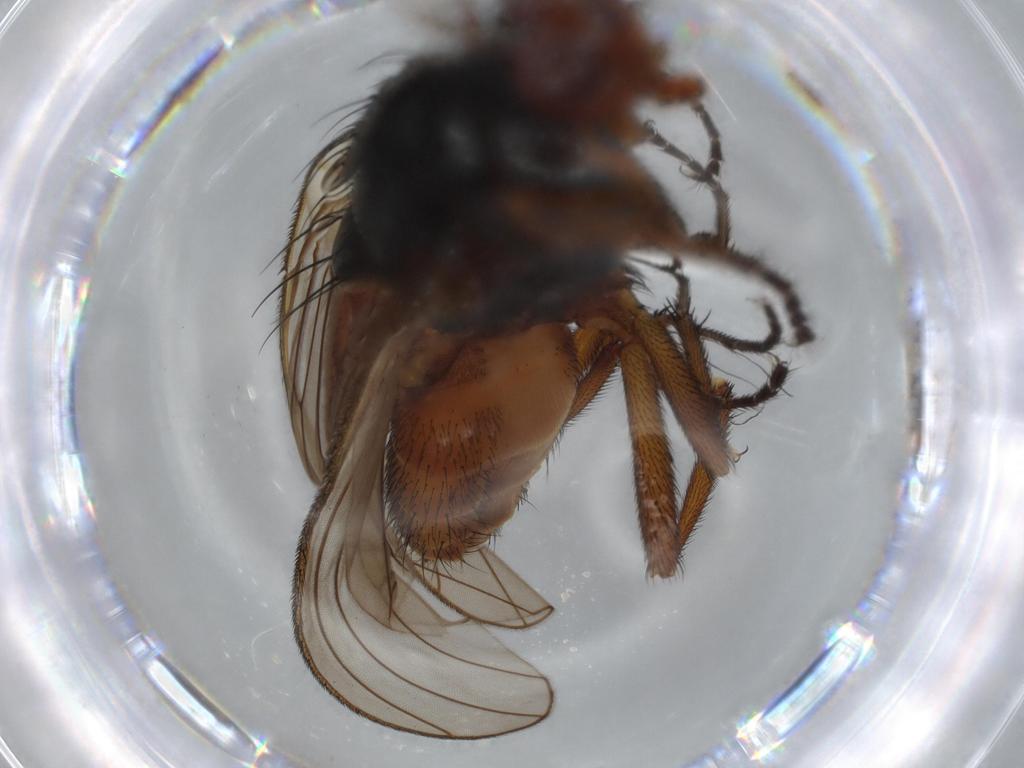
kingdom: Animalia
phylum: Arthropoda
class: Insecta
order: Diptera
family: Heleomyzidae
